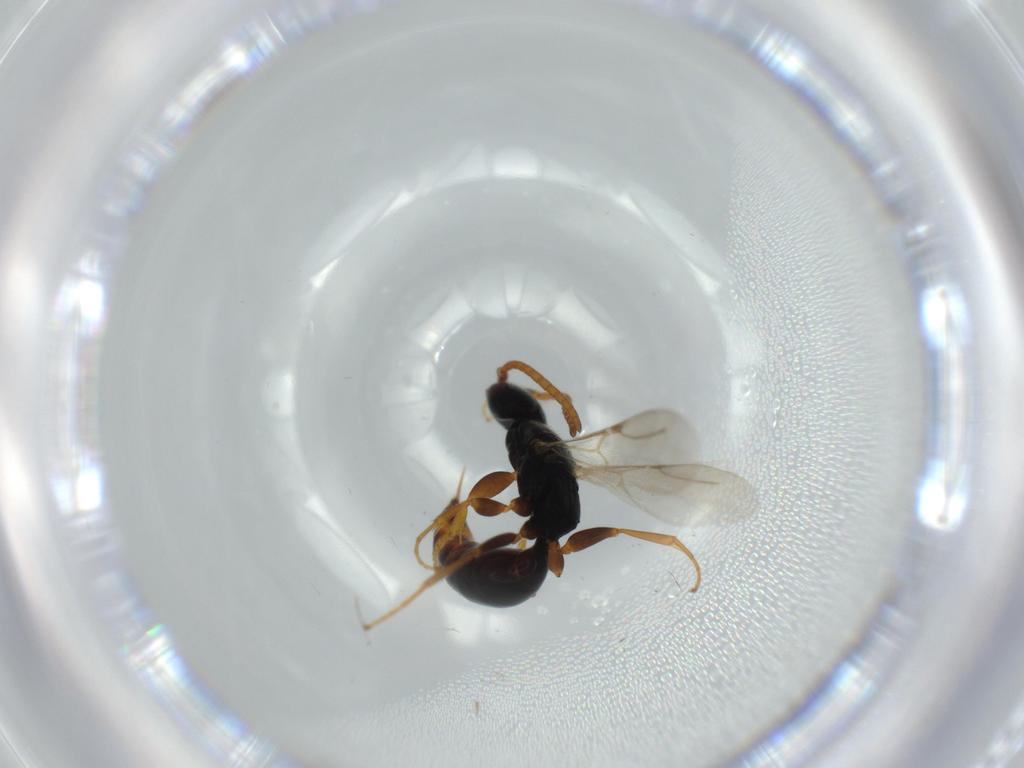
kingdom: Animalia
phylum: Arthropoda
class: Insecta
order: Hymenoptera
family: Bethylidae
